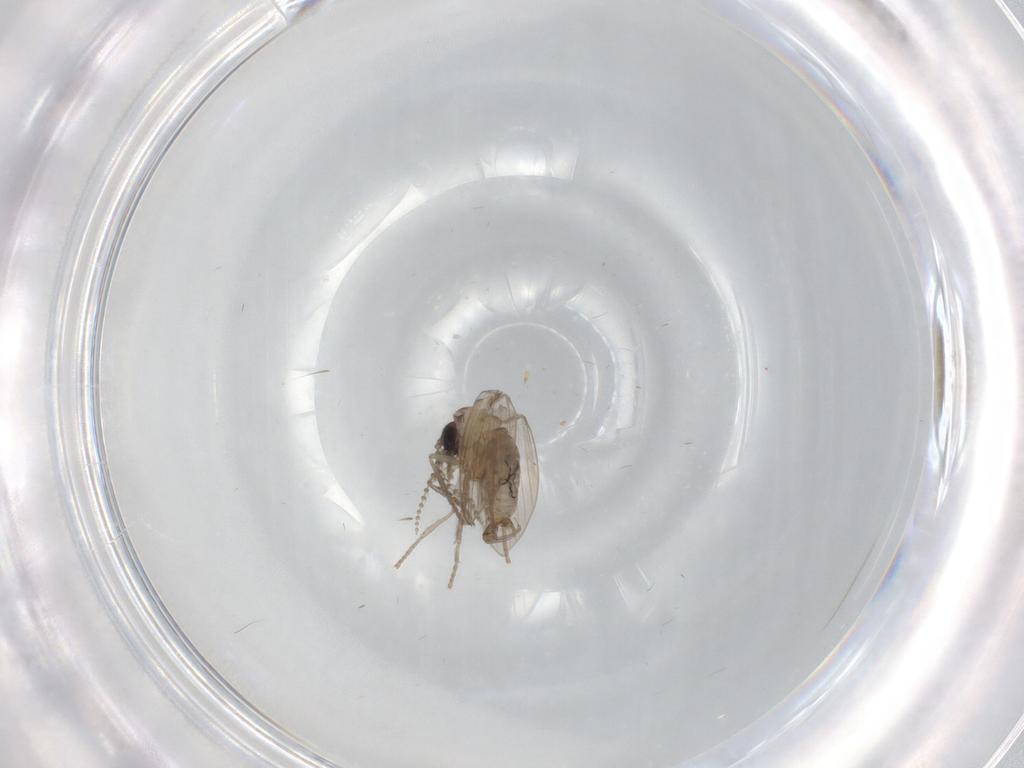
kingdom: Animalia
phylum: Arthropoda
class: Insecta
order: Diptera
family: Psychodidae
